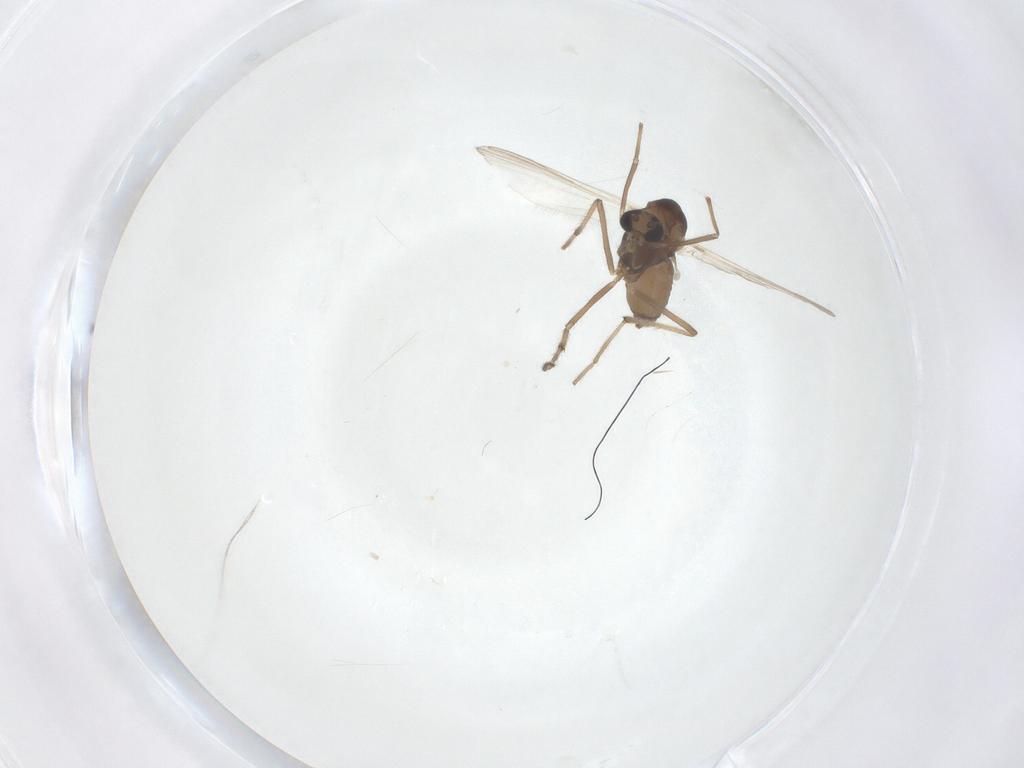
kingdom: Animalia
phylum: Arthropoda
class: Insecta
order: Diptera
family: Chironomidae
